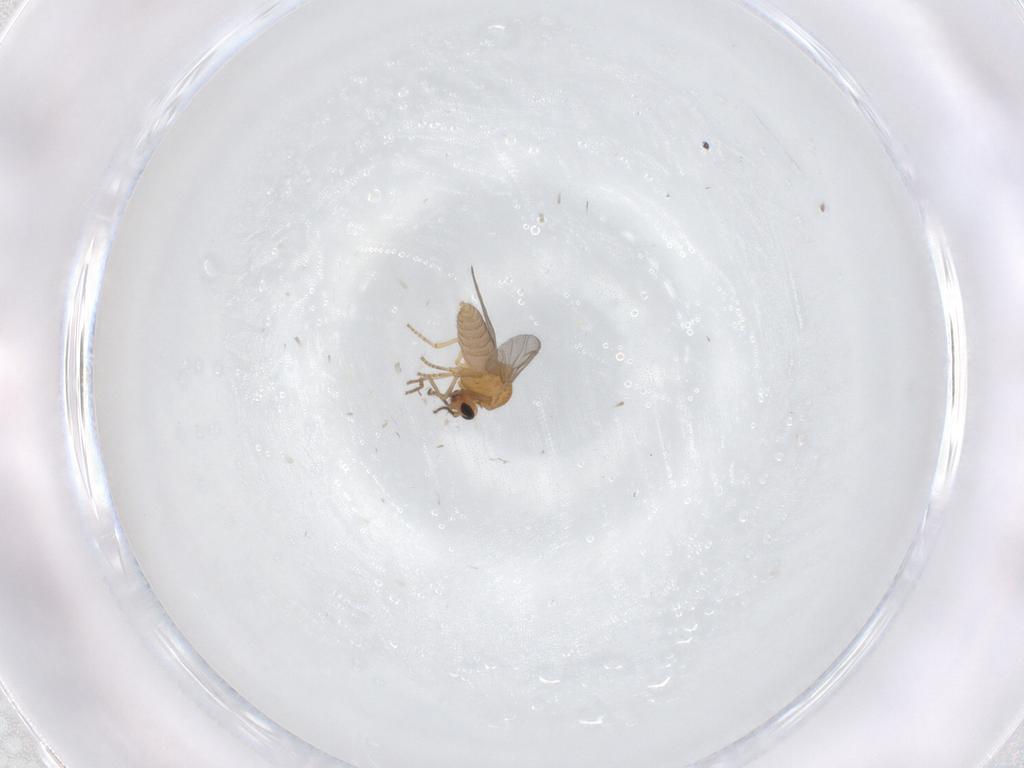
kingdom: Animalia
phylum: Arthropoda
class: Insecta
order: Diptera
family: Ceratopogonidae
